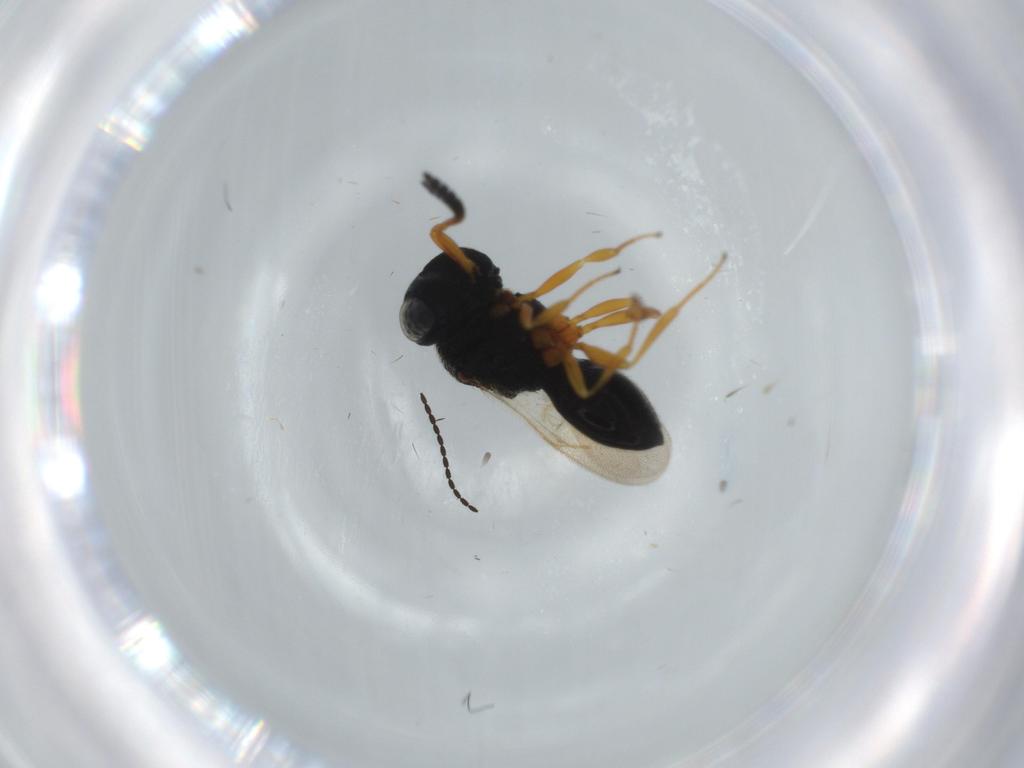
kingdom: Animalia
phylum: Arthropoda
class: Insecta
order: Hymenoptera
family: Figitidae
